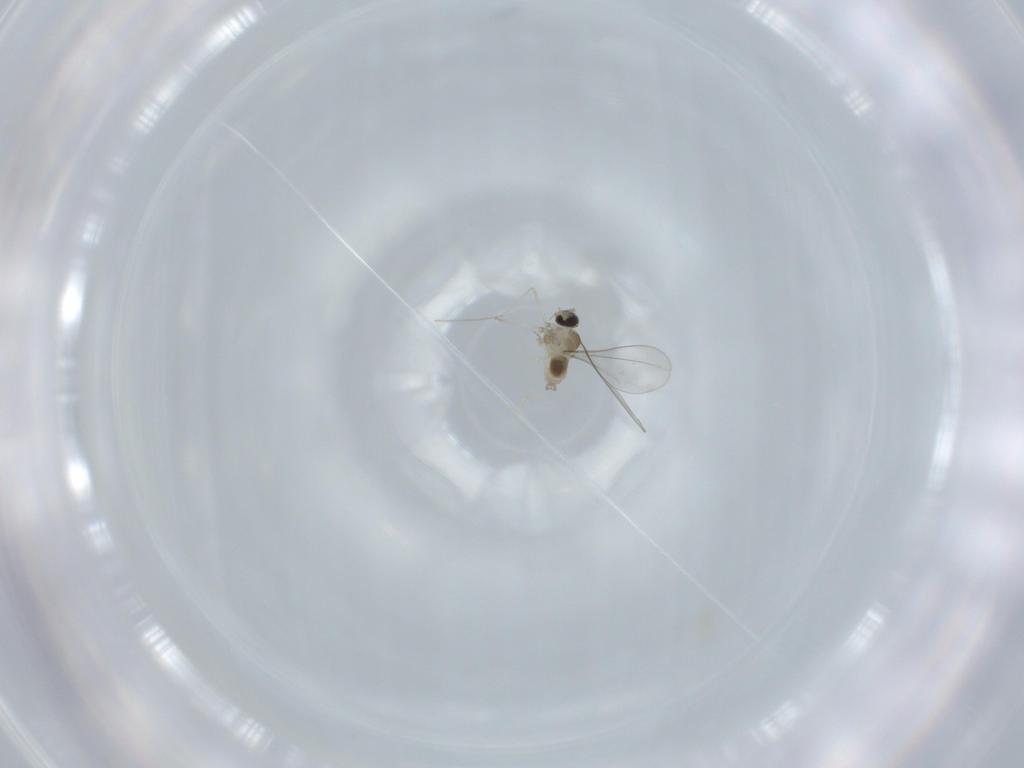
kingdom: Animalia
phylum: Arthropoda
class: Insecta
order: Diptera
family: Cecidomyiidae
